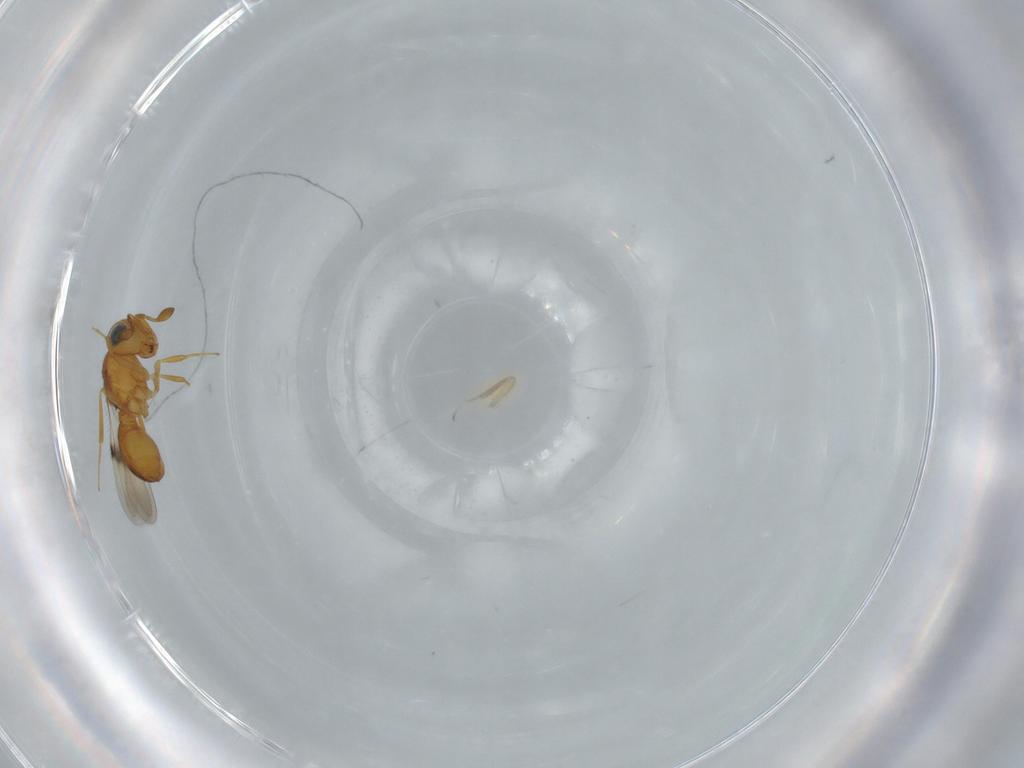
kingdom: Animalia
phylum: Arthropoda
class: Insecta
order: Hymenoptera
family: Scelionidae
